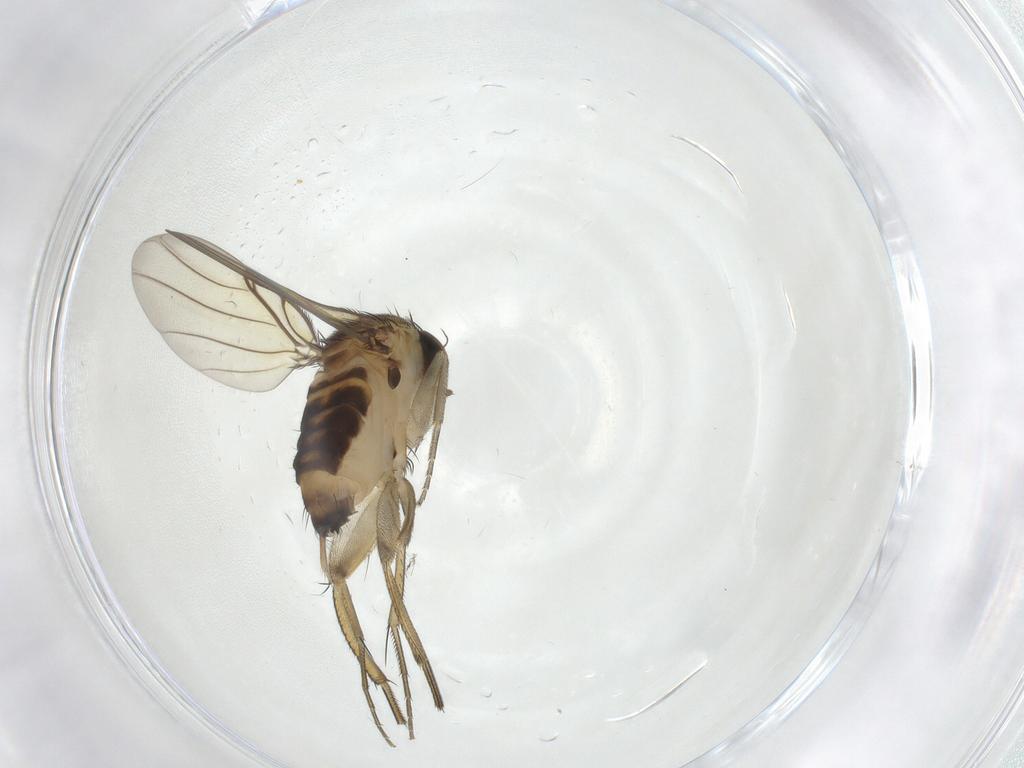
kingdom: Animalia
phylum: Arthropoda
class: Insecta
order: Diptera
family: Phoridae
